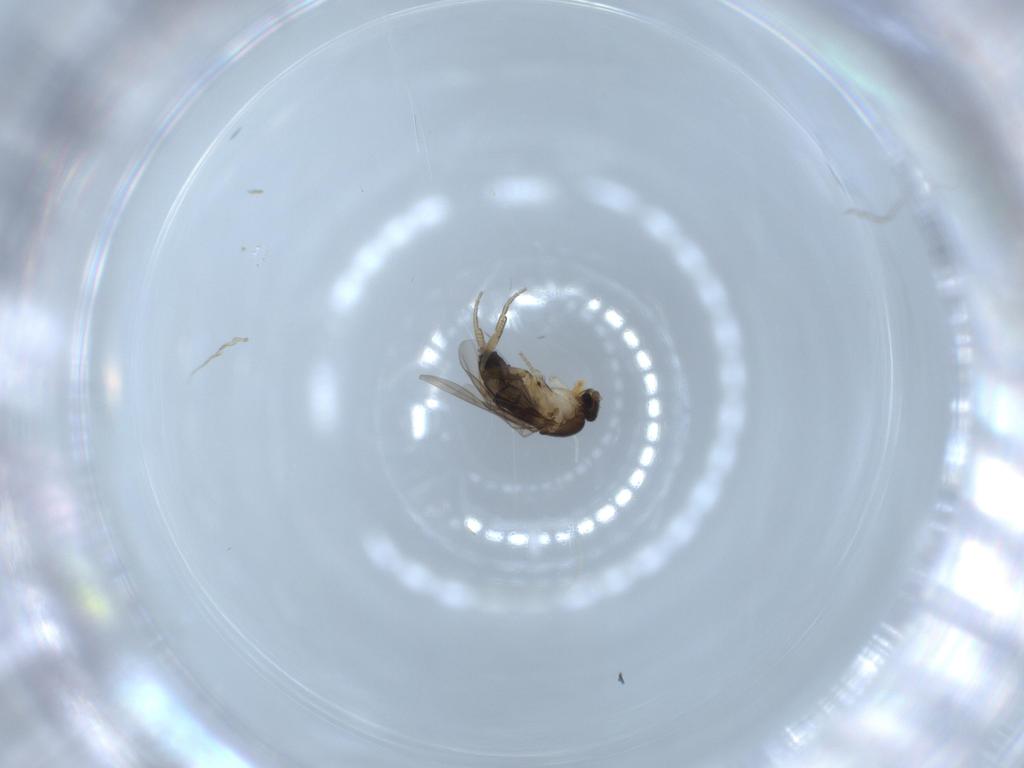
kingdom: Animalia
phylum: Arthropoda
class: Insecta
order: Diptera
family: Phoridae
